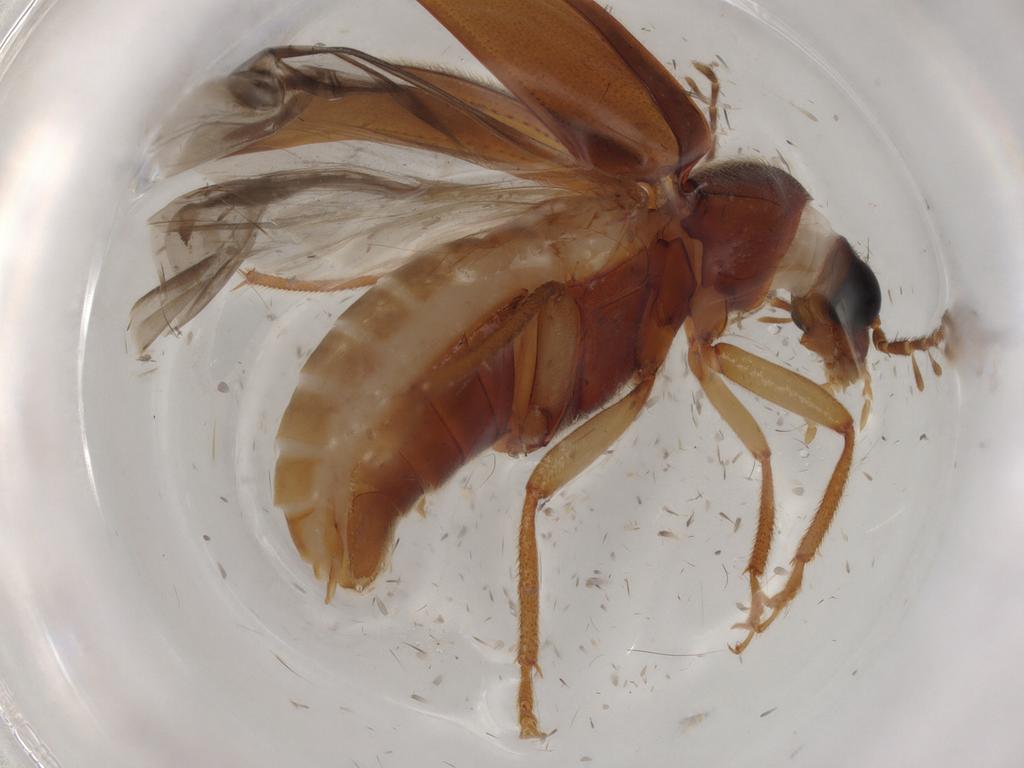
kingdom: Animalia
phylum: Arthropoda
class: Insecta
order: Coleoptera
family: Ptilodactylidae
